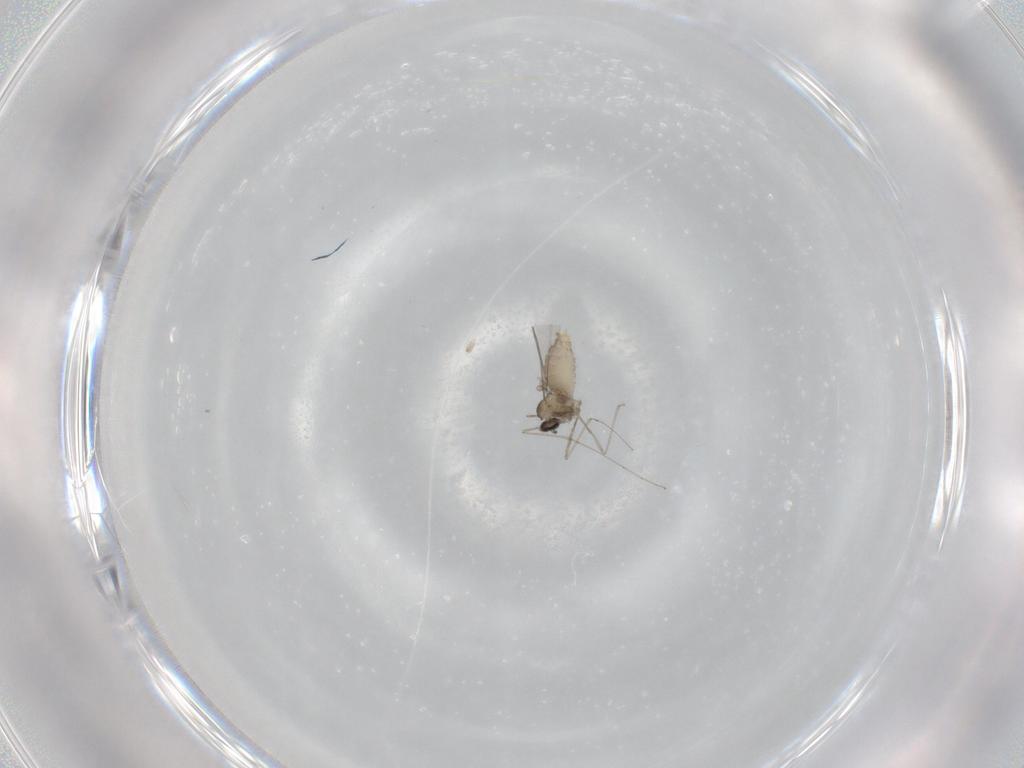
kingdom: Animalia
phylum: Arthropoda
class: Insecta
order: Diptera
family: Cecidomyiidae
